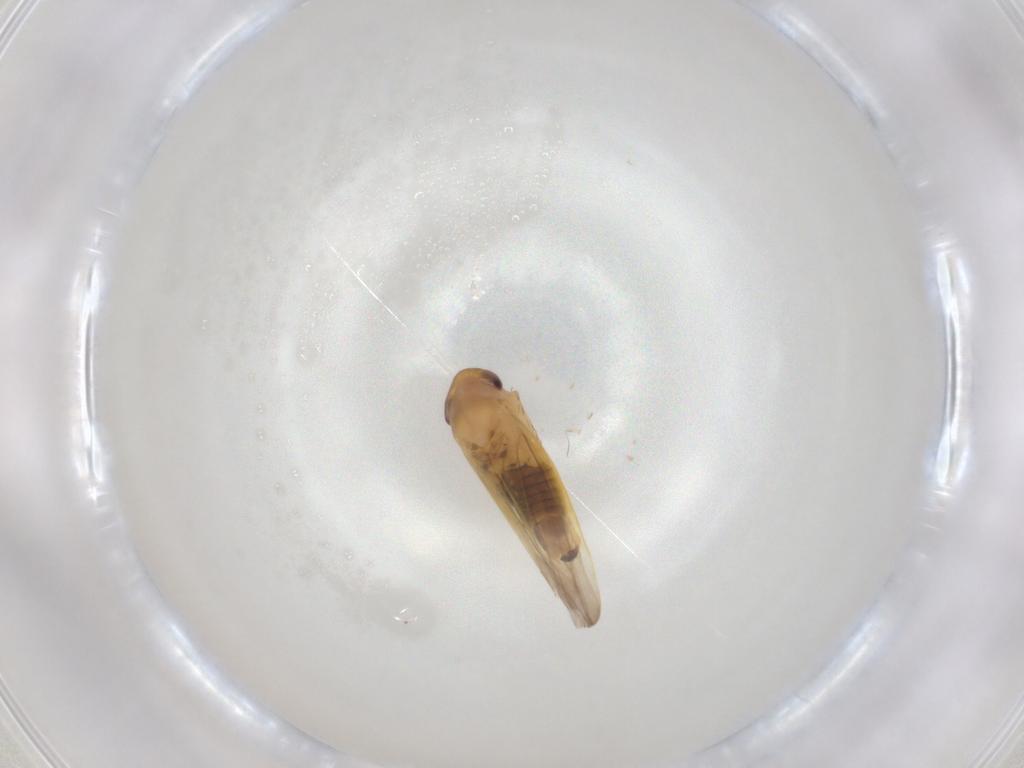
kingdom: Animalia
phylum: Arthropoda
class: Insecta
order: Hemiptera
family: Cicadellidae
